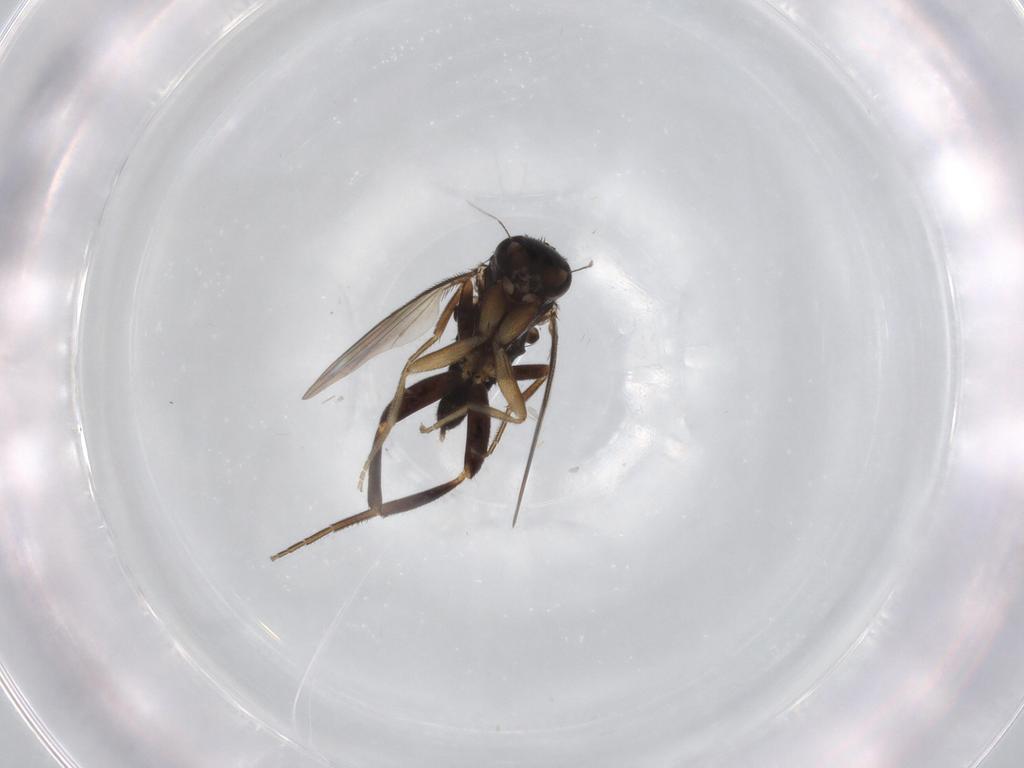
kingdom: Animalia
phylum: Arthropoda
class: Insecta
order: Diptera
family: Phoridae
